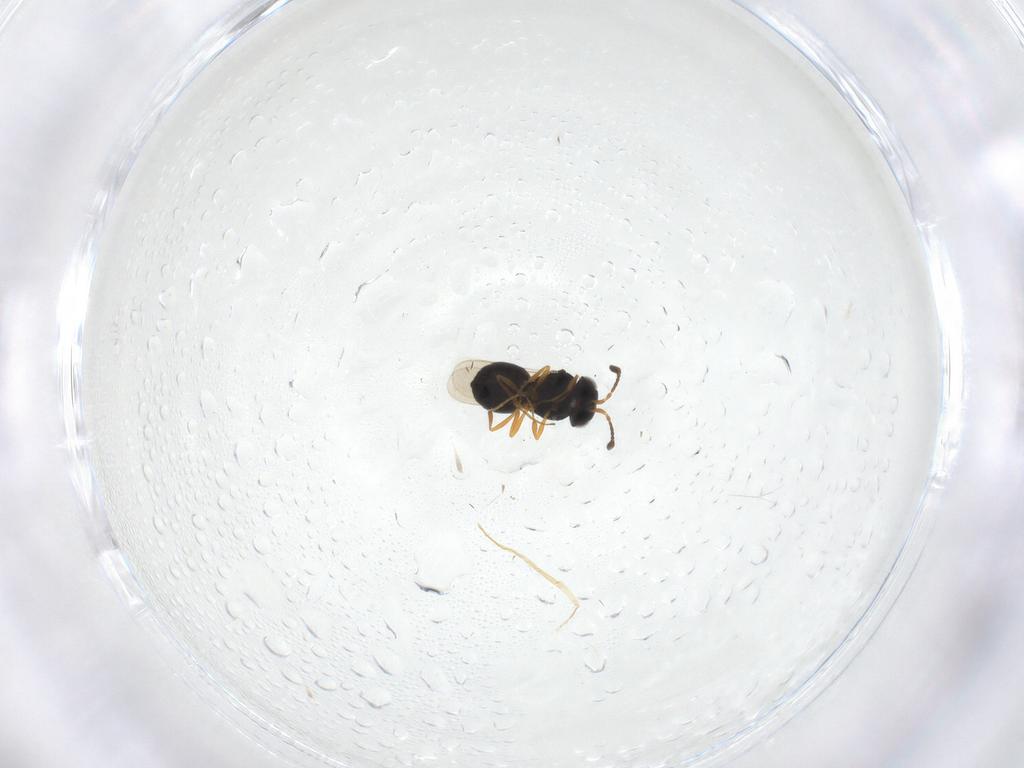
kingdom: Animalia
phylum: Arthropoda
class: Insecta
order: Hymenoptera
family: Scelionidae
